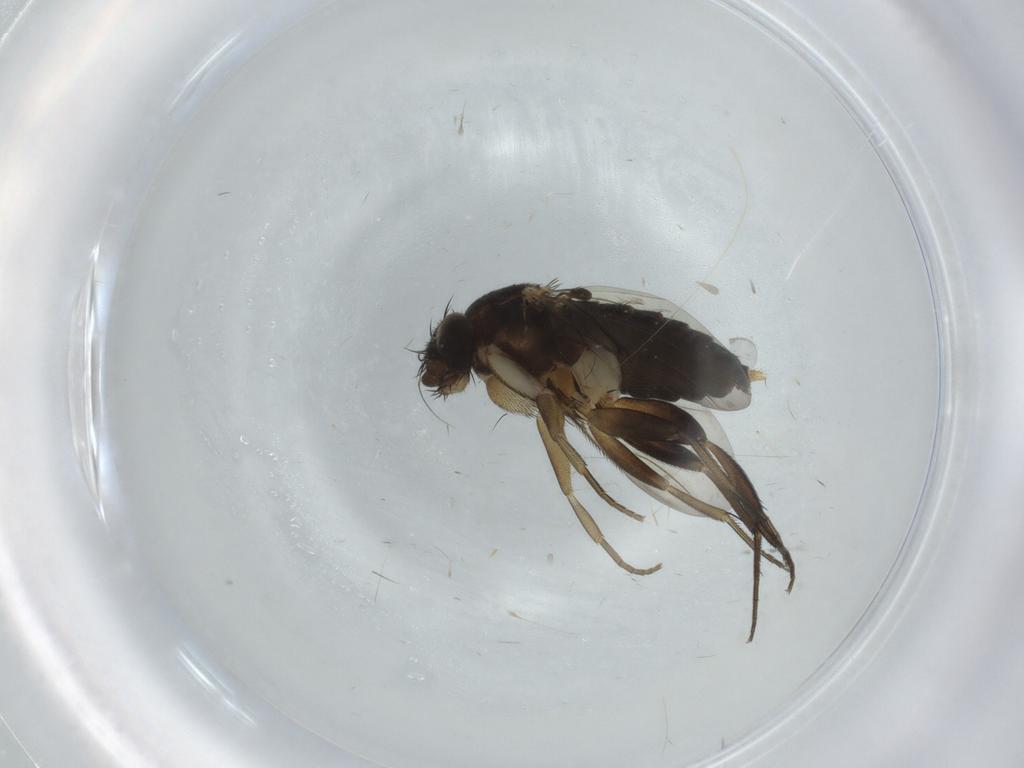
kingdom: Animalia
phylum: Arthropoda
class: Insecta
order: Diptera
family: Phoridae
